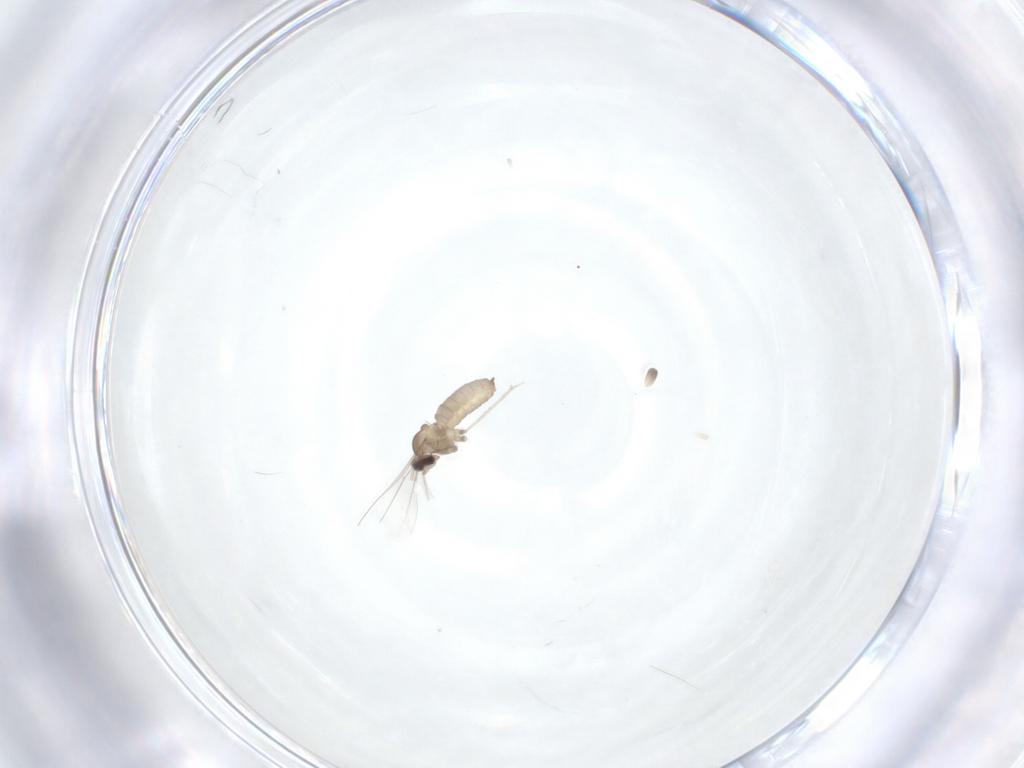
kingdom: Animalia
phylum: Arthropoda
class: Insecta
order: Diptera
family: Cecidomyiidae
